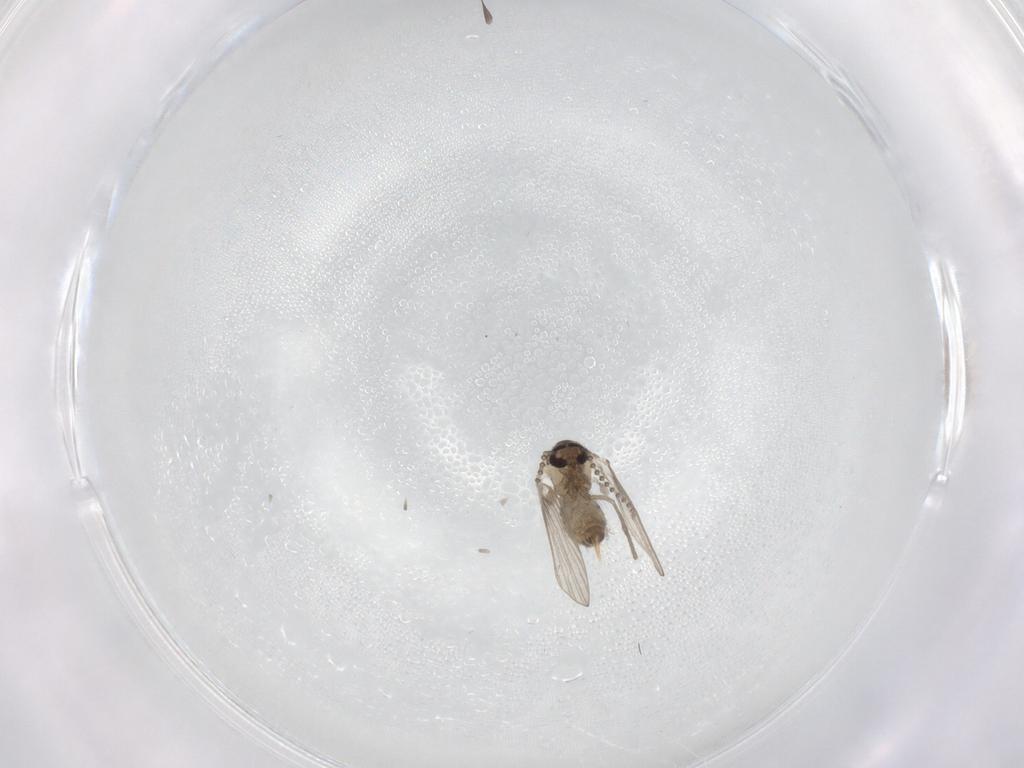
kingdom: Animalia
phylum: Arthropoda
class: Insecta
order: Diptera
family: Psychodidae
